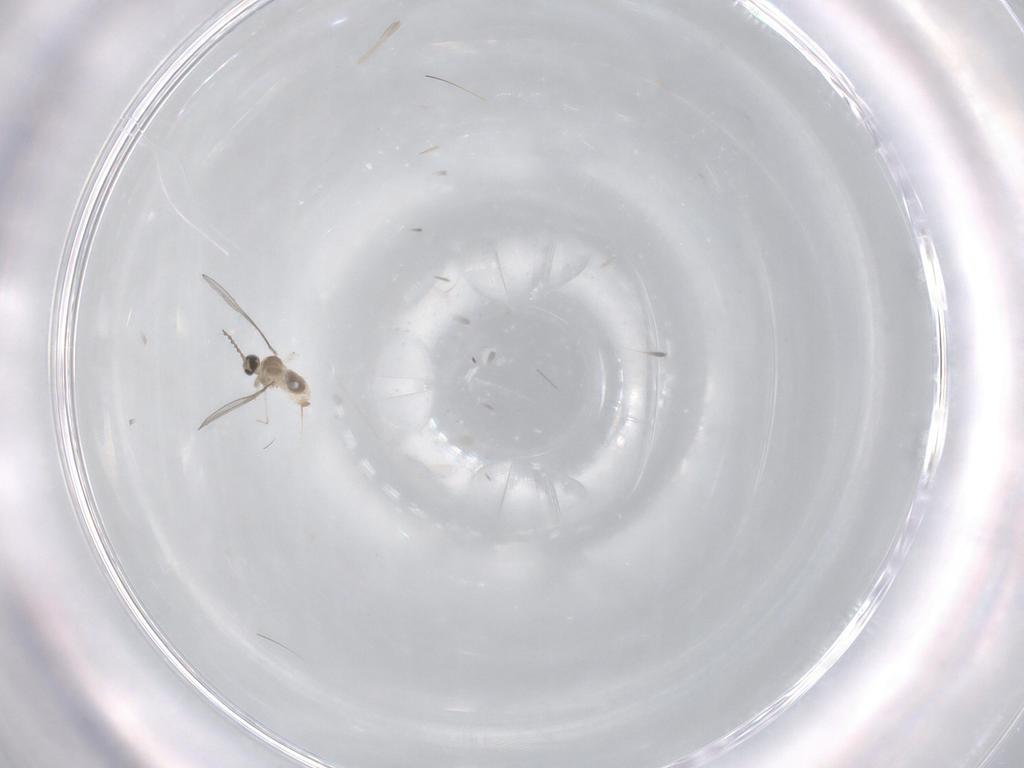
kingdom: Animalia
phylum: Arthropoda
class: Insecta
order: Diptera
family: Cecidomyiidae
